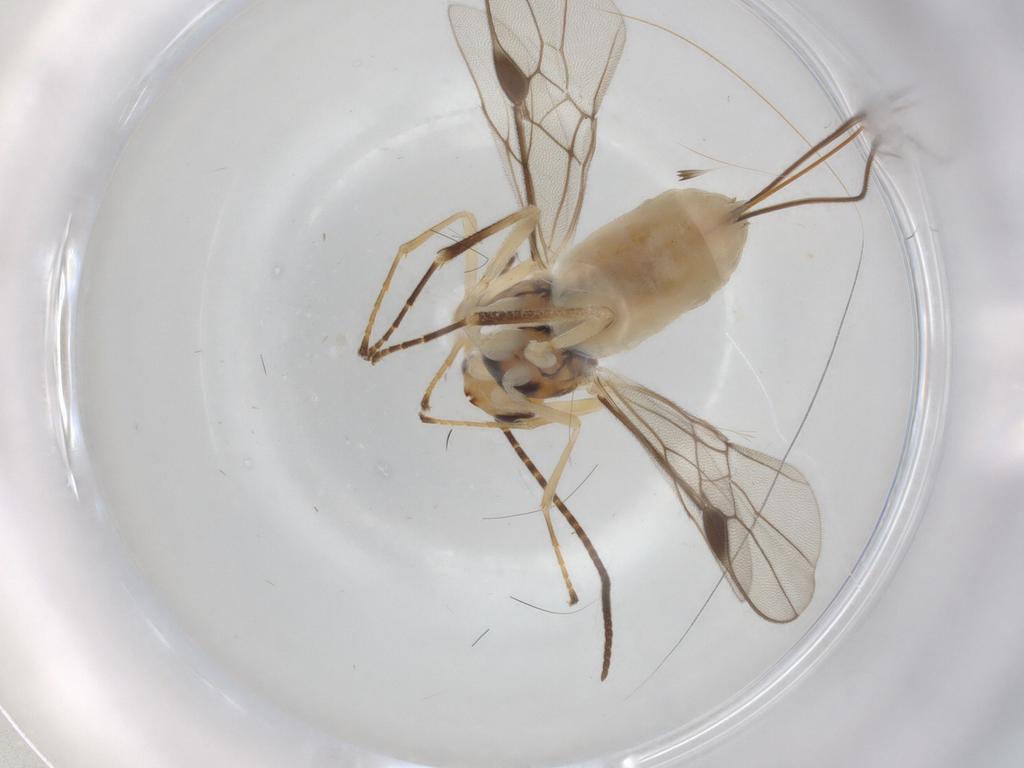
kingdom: Animalia
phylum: Arthropoda
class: Insecta
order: Hymenoptera
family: Braconidae
